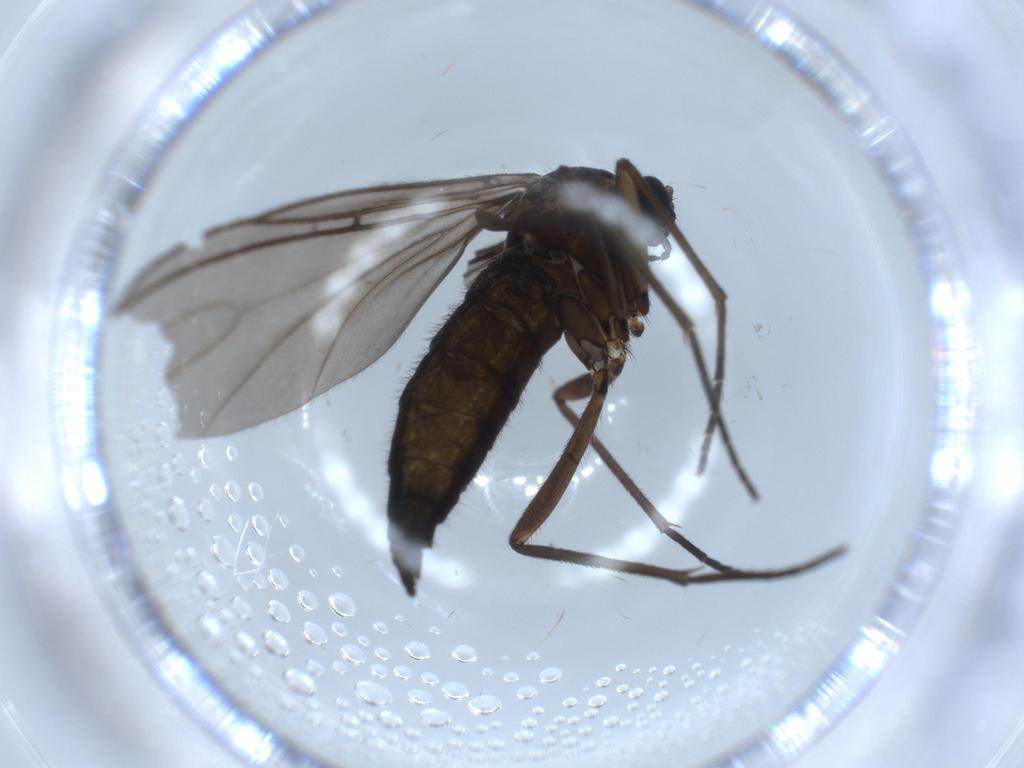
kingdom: Animalia
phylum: Arthropoda
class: Insecta
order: Diptera
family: Sciaridae
